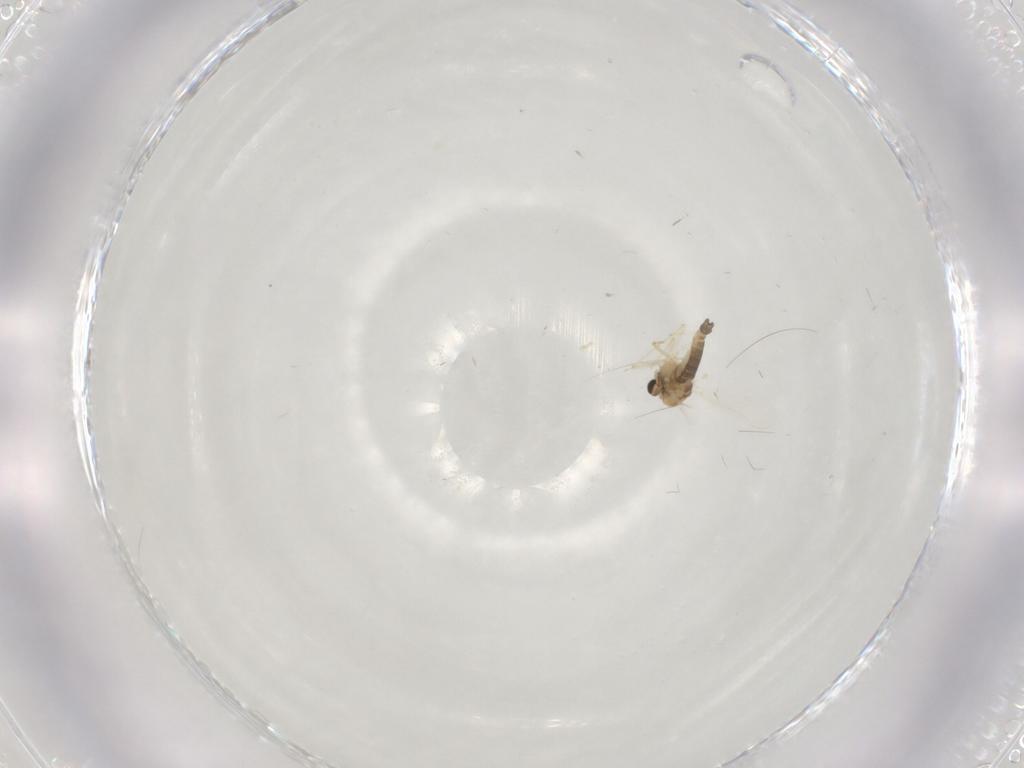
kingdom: Animalia
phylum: Arthropoda
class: Insecta
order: Diptera
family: Chironomidae
